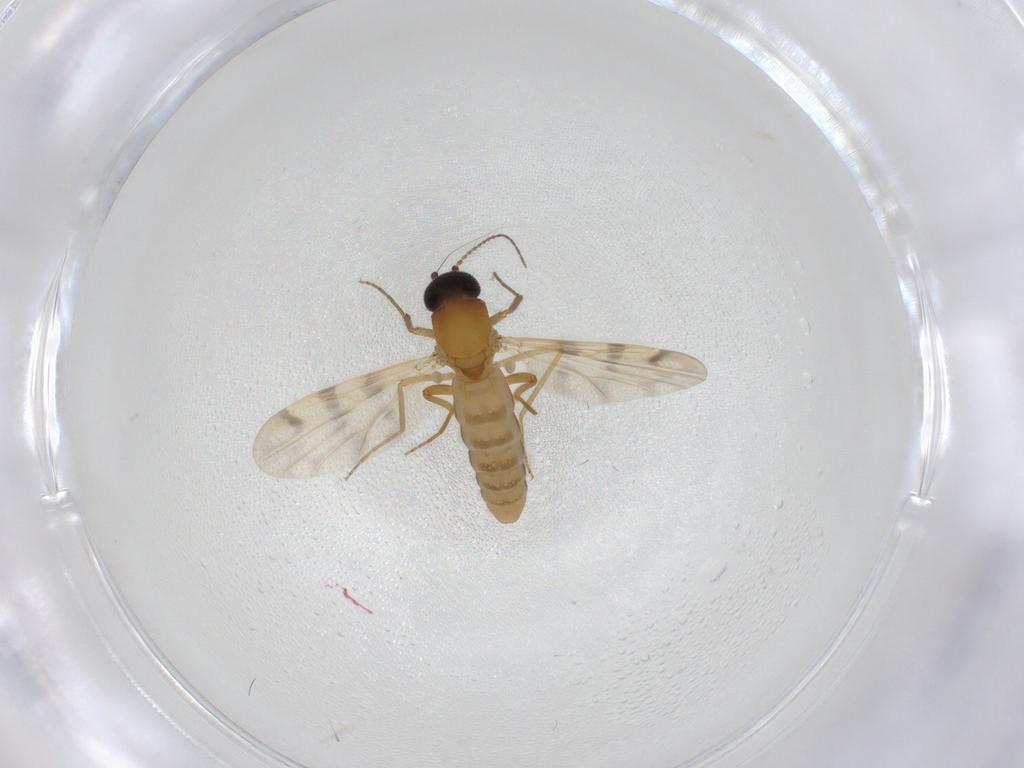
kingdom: Animalia
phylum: Arthropoda
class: Insecta
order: Diptera
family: Ceratopogonidae
